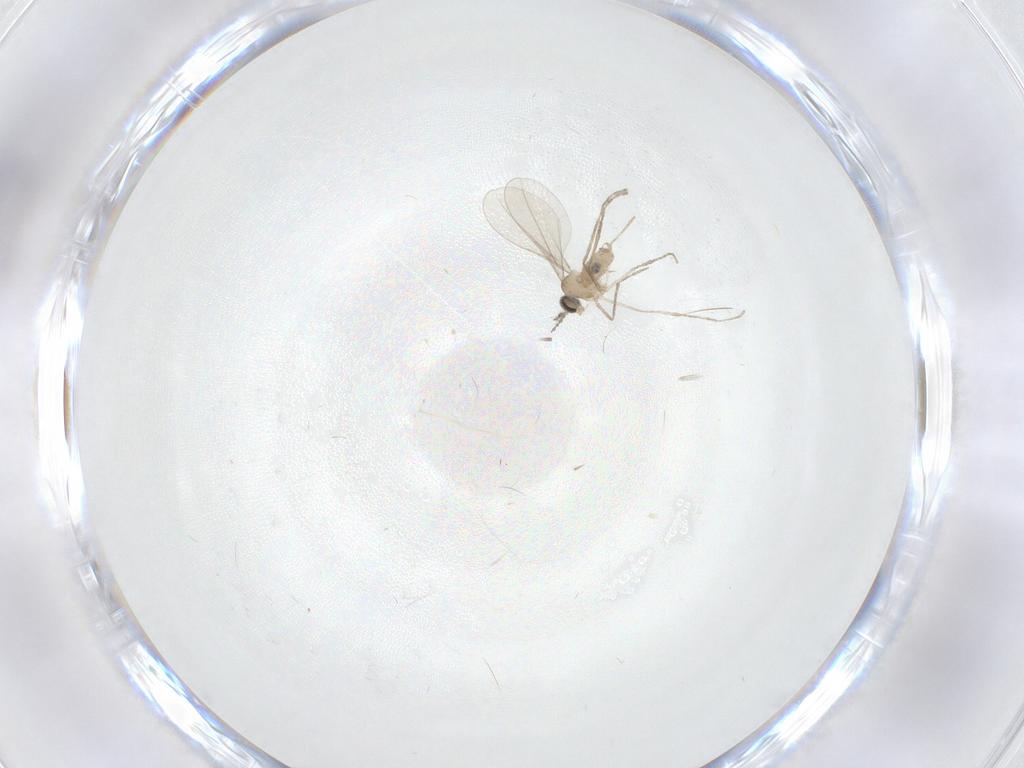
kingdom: Animalia
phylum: Arthropoda
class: Insecta
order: Diptera
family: Cecidomyiidae
